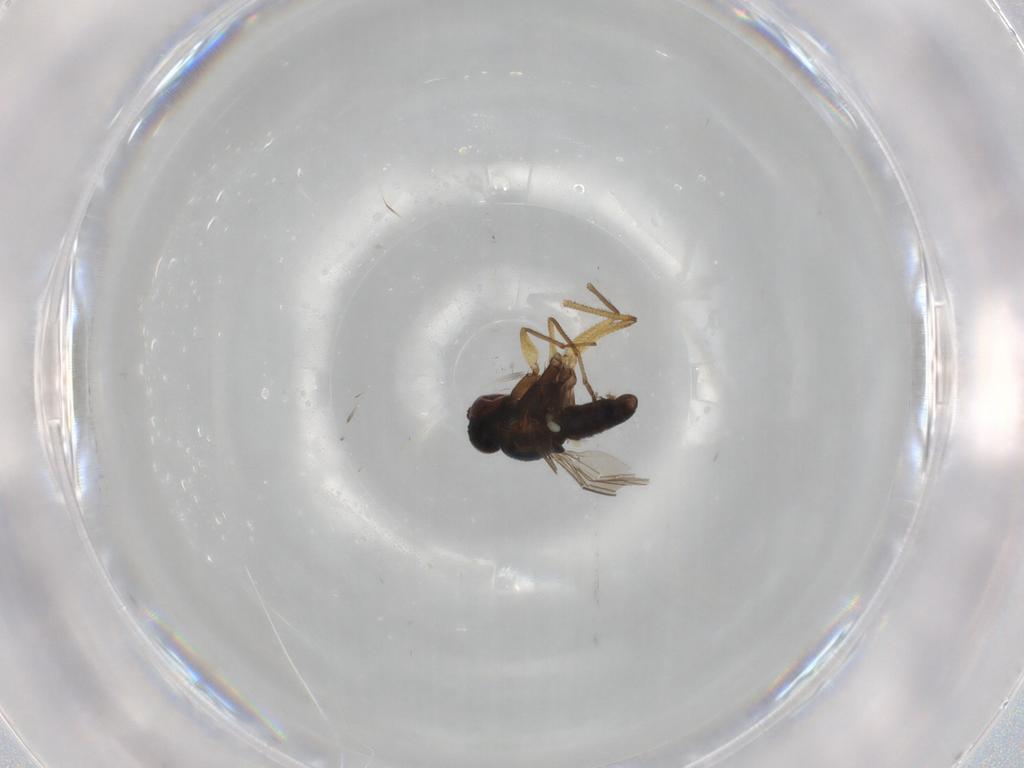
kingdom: Animalia
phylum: Arthropoda
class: Insecta
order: Diptera
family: Dolichopodidae
